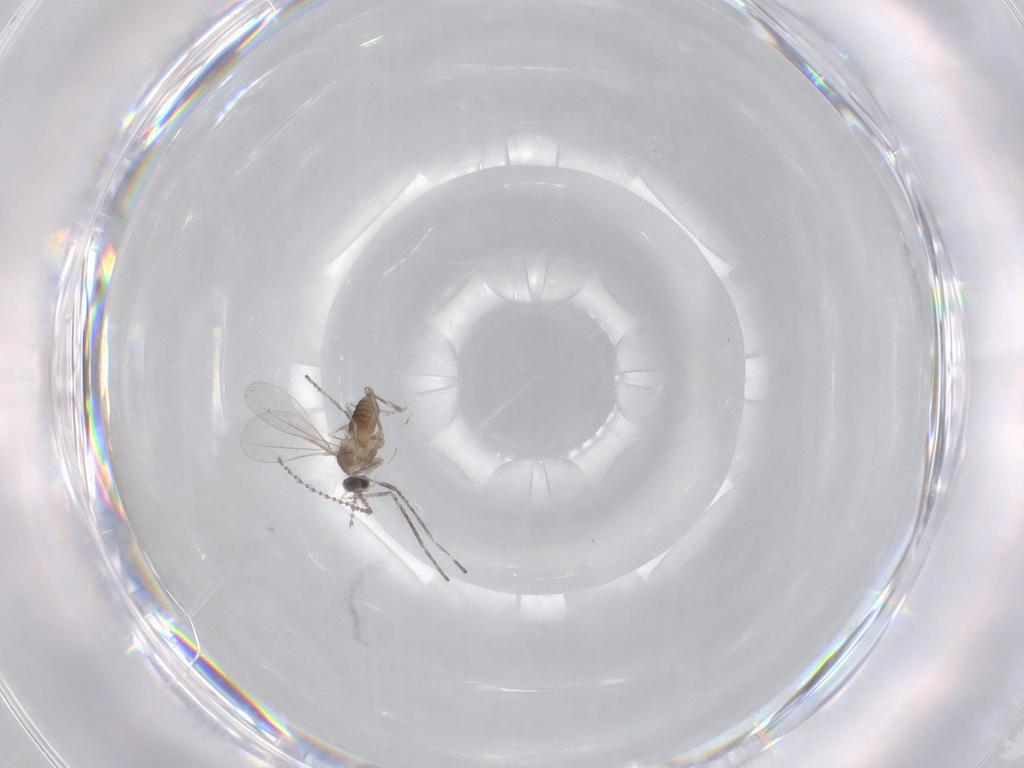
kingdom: Animalia
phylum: Arthropoda
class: Insecta
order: Diptera
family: Cecidomyiidae
